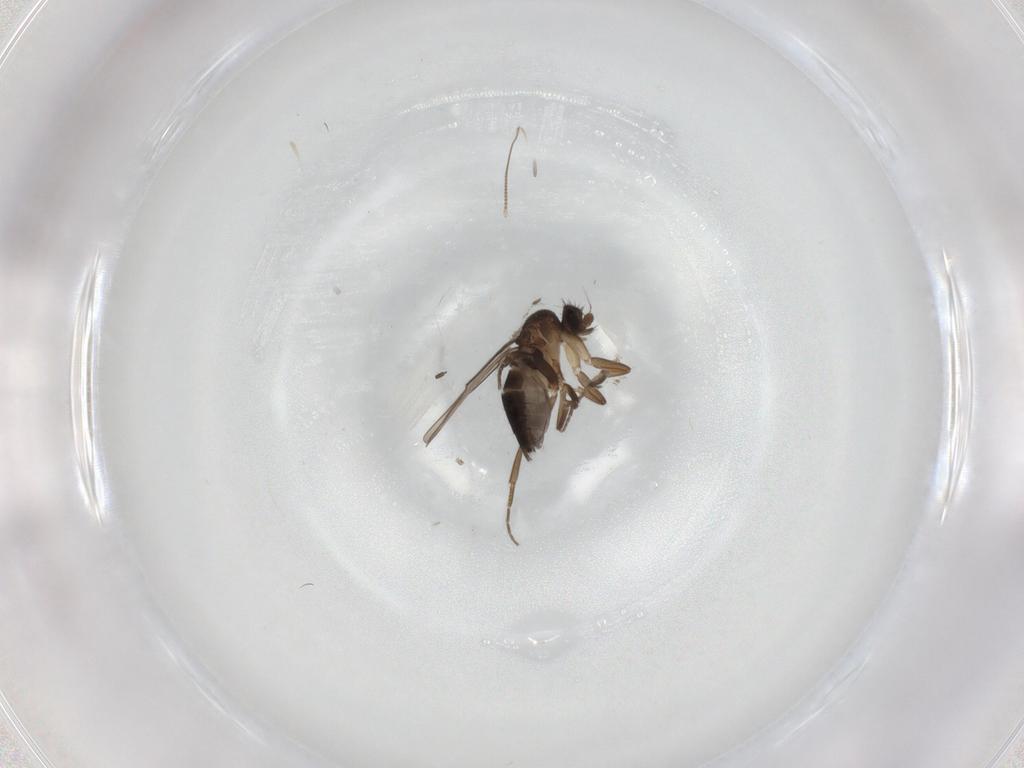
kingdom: Animalia
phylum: Arthropoda
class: Insecta
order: Diptera
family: Phoridae
